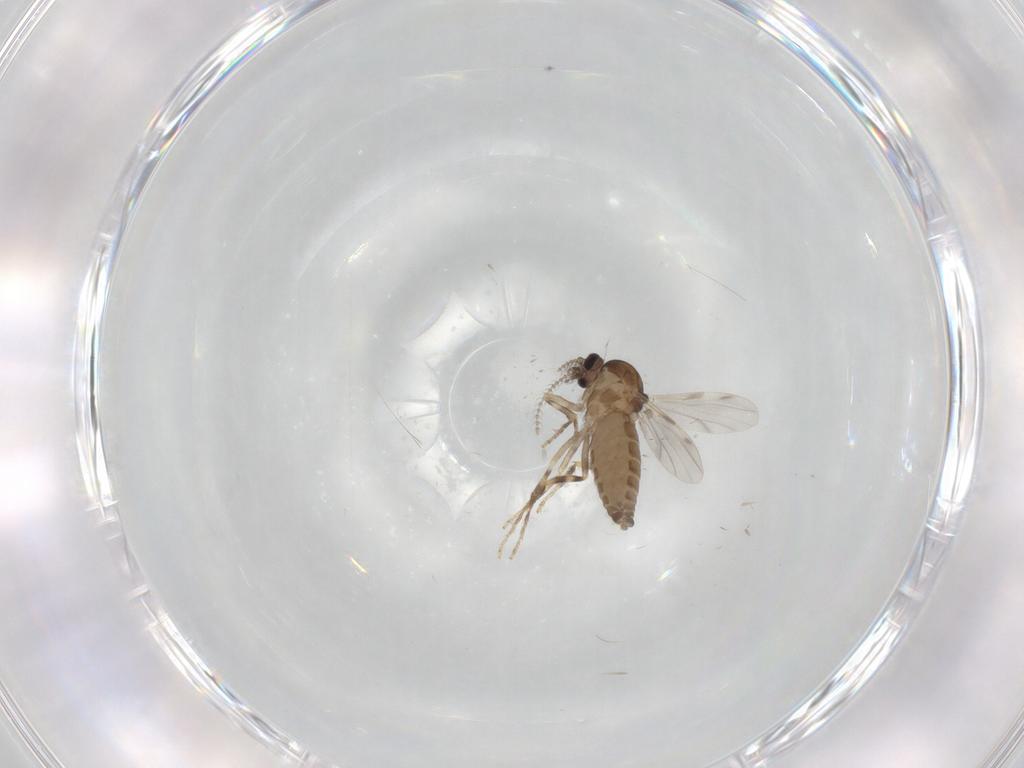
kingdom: Animalia
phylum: Arthropoda
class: Insecta
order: Diptera
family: Ceratopogonidae
